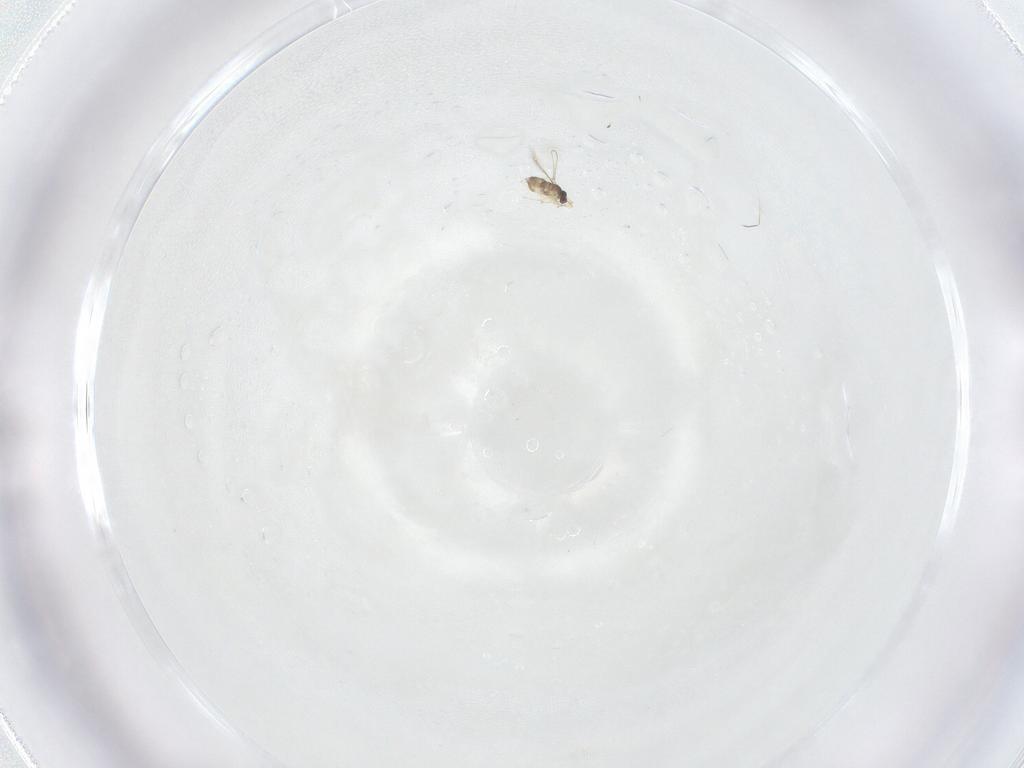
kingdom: Animalia
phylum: Arthropoda
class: Insecta
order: Hymenoptera
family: Mymaridae
